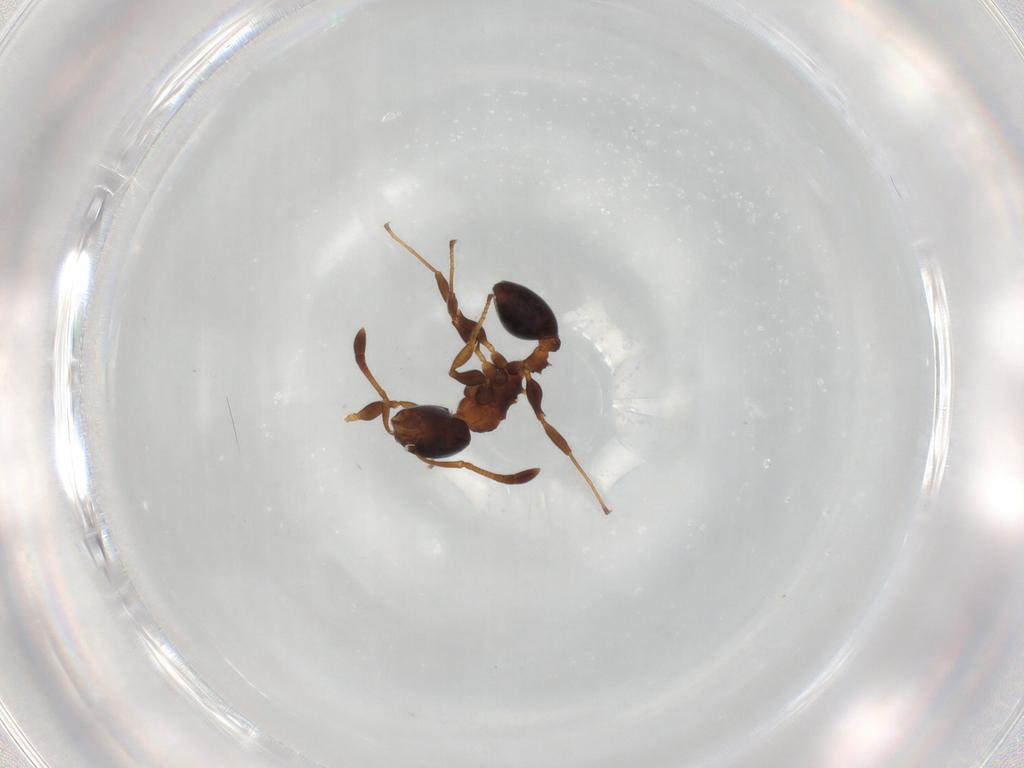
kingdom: Animalia
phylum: Arthropoda
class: Insecta
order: Hymenoptera
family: Formicidae
